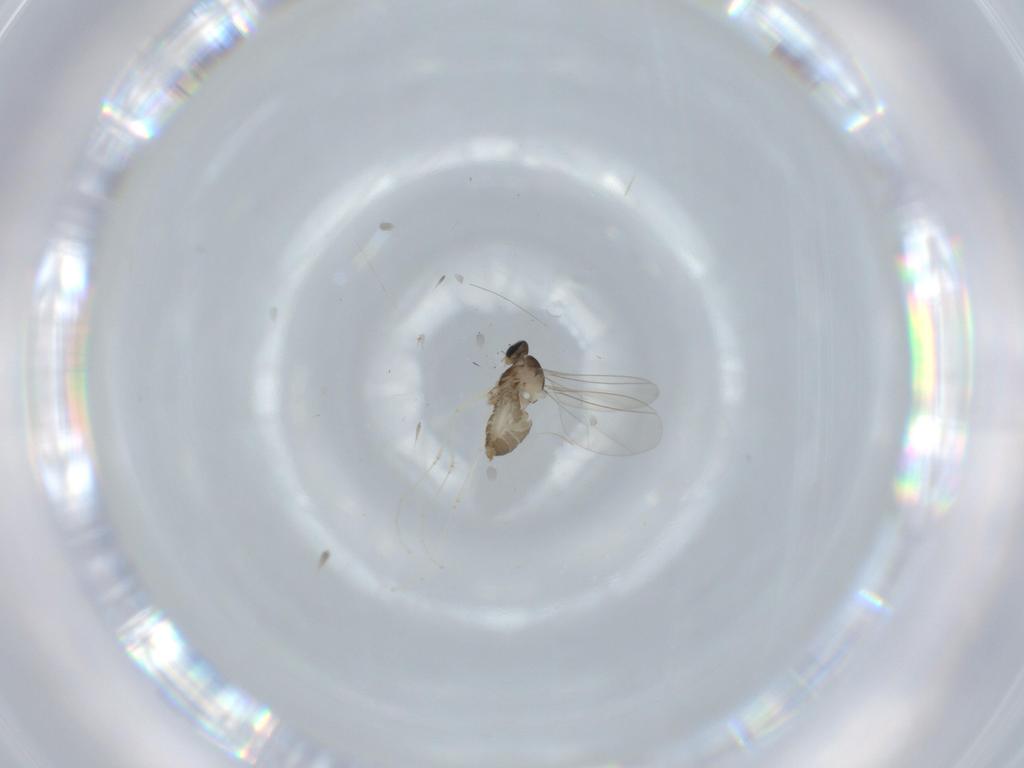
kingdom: Animalia
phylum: Arthropoda
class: Insecta
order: Diptera
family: Cecidomyiidae
